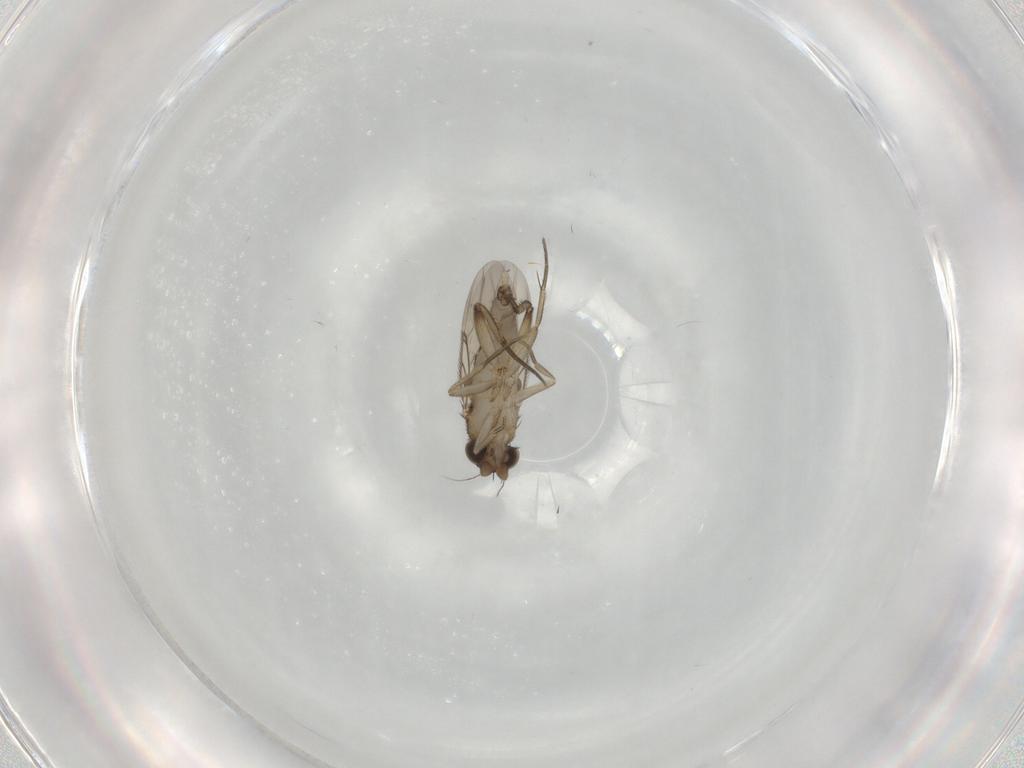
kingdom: Animalia
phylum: Arthropoda
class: Insecta
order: Diptera
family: Phoridae
